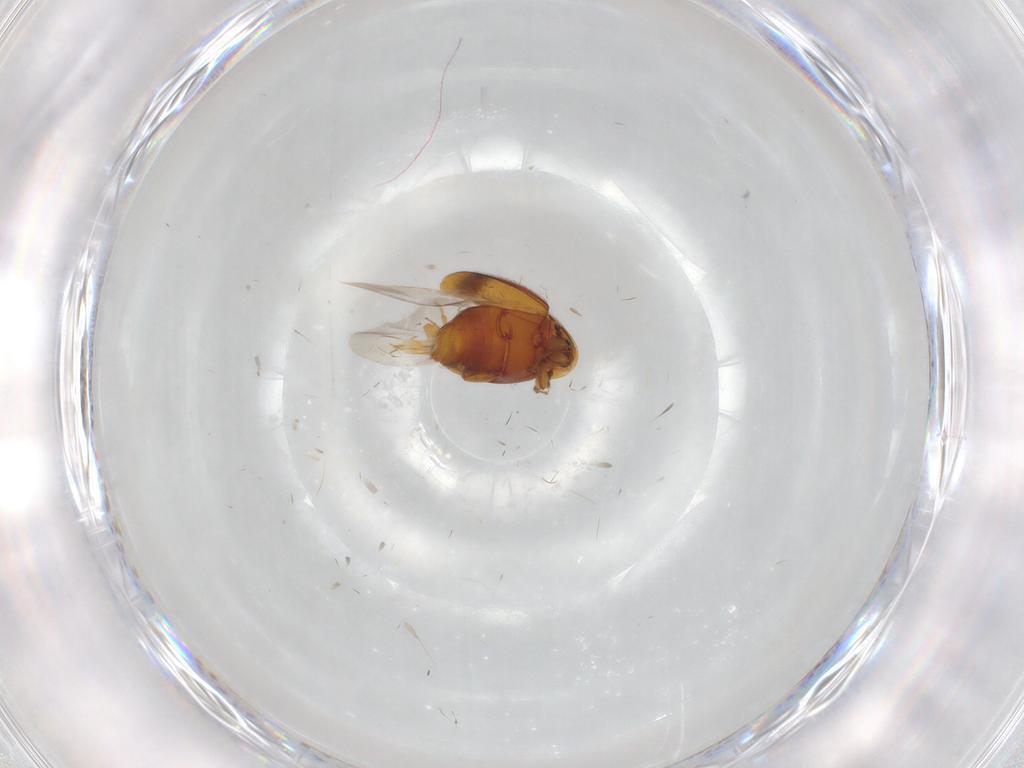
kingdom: Animalia
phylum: Arthropoda
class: Insecta
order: Coleoptera
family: Corylophidae
